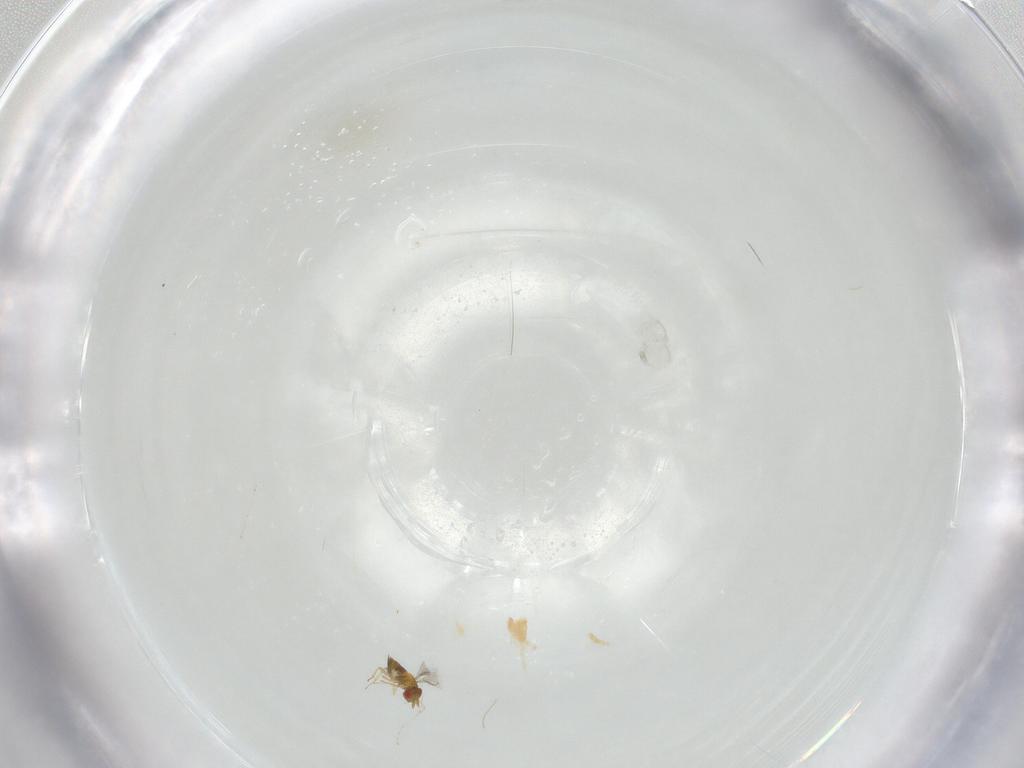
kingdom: Animalia
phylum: Arthropoda
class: Insecta
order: Hymenoptera
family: Trichogrammatidae
